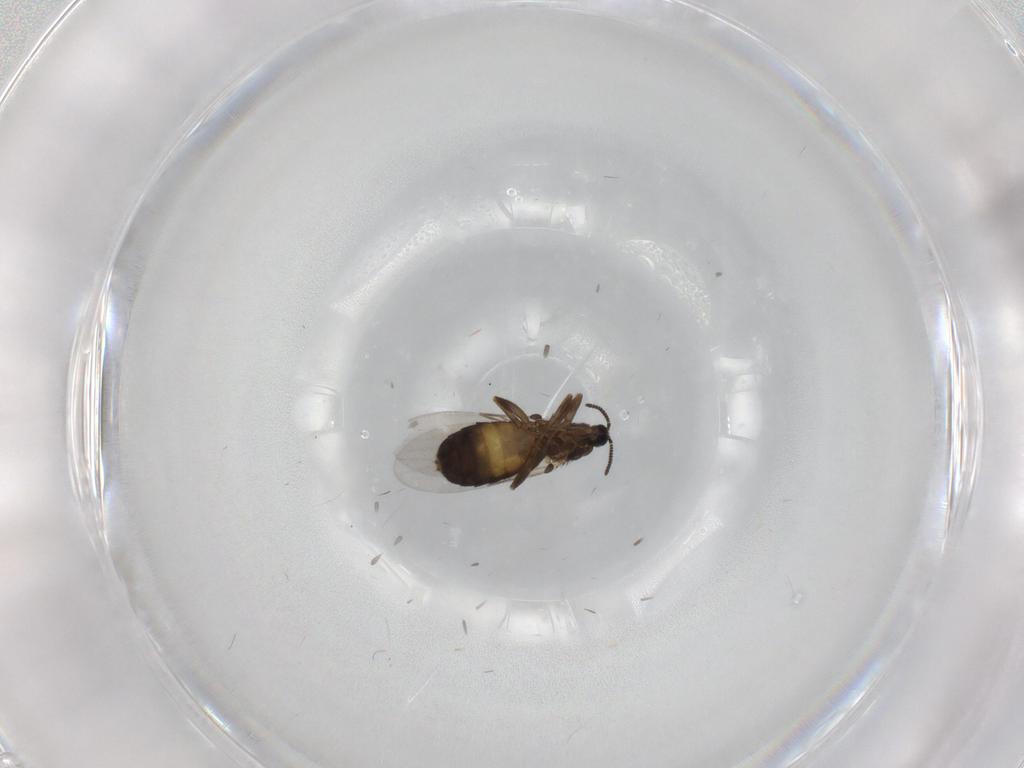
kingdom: Animalia
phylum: Arthropoda
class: Insecta
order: Diptera
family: Scatopsidae
